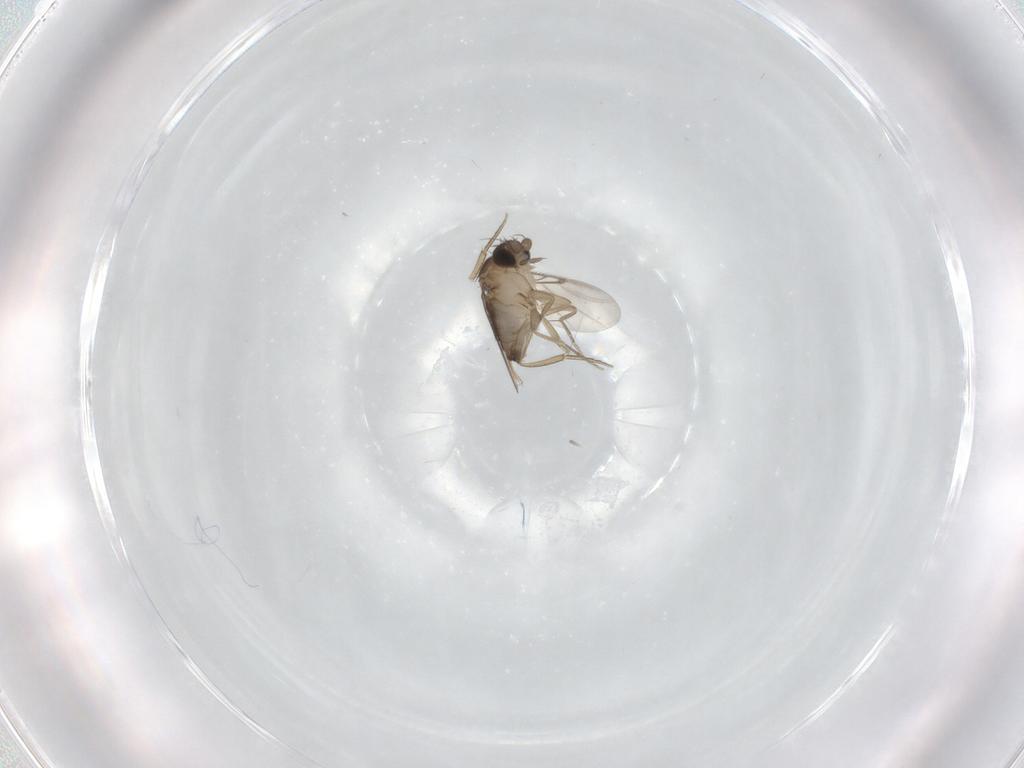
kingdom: Animalia
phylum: Arthropoda
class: Insecta
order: Diptera
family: Phoridae
